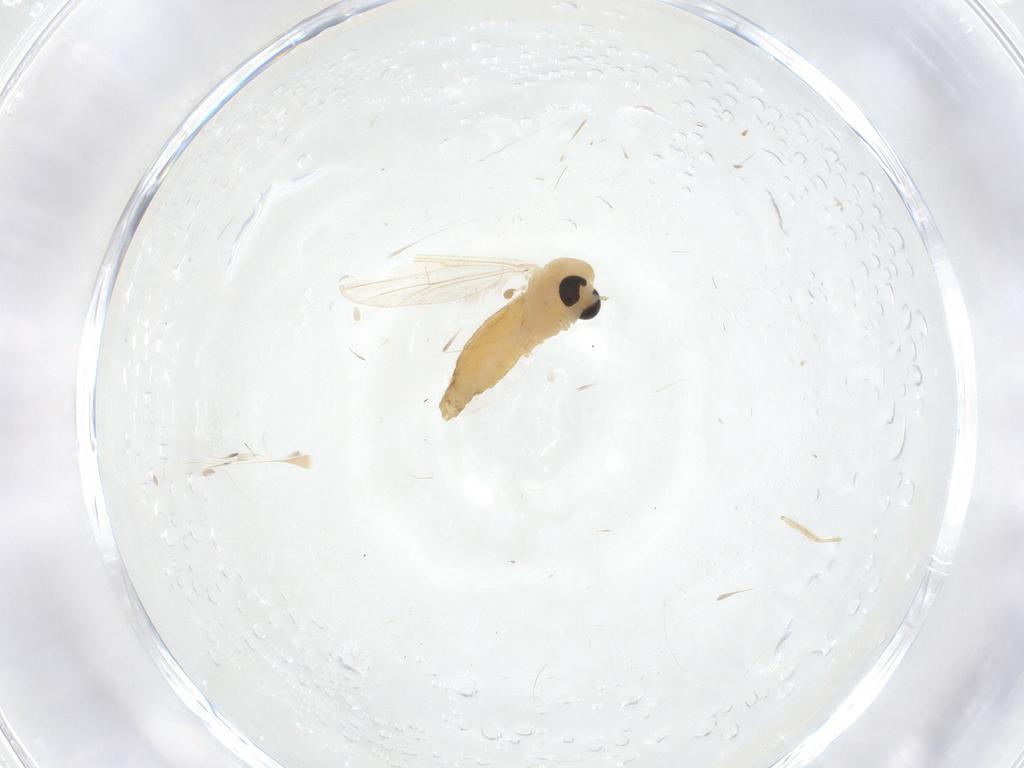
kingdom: Animalia
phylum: Arthropoda
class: Insecta
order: Diptera
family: Chironomidae
